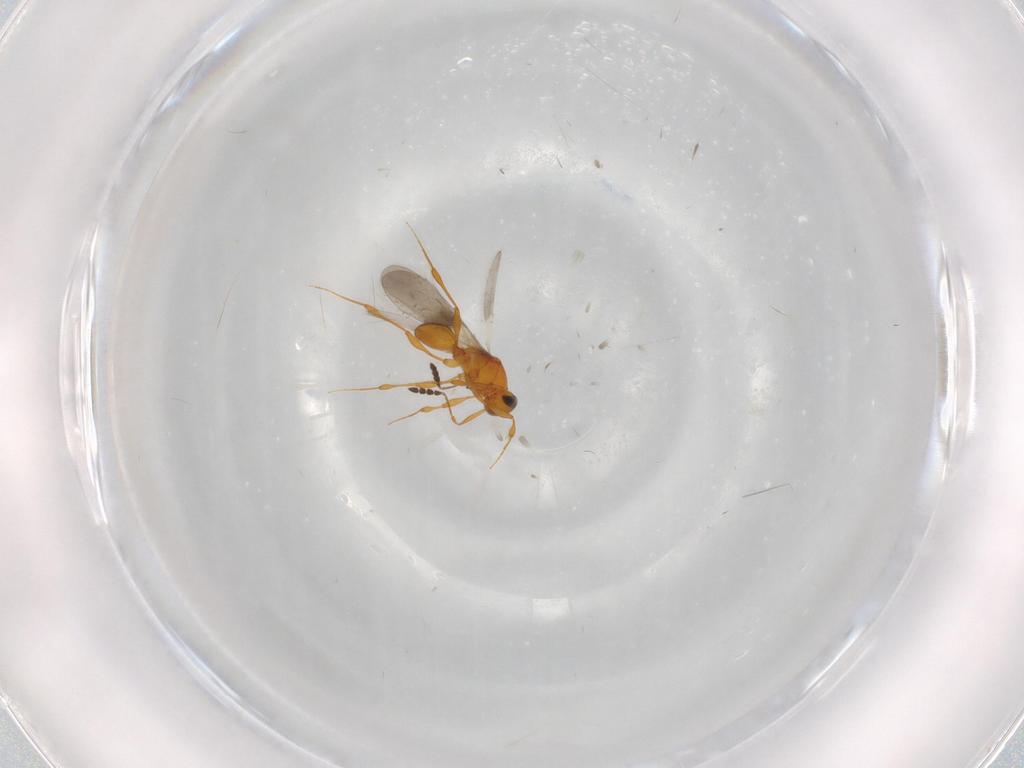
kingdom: Animalia
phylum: Arthropoda
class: Insecta
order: Hymenoptera
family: Platygastridae
